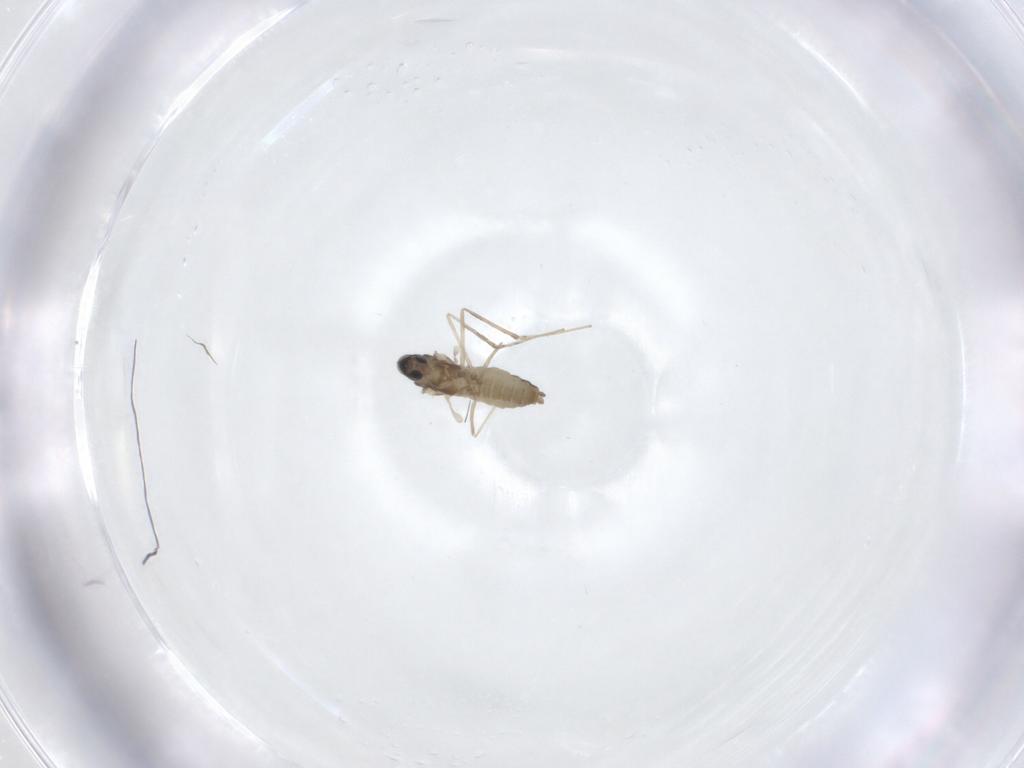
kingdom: Animalia
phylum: Arthropoda
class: Insecta
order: Diptera
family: Cecidomyiidae
